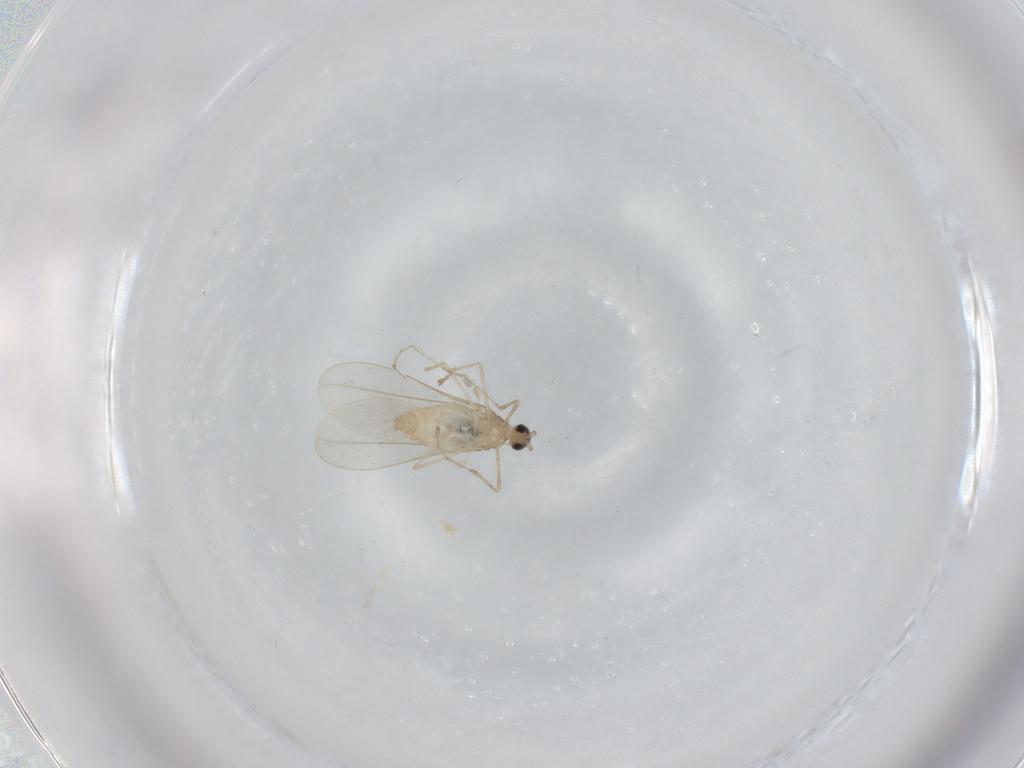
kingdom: Animalia
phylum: Arthropoda
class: Insecta
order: Diptera
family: Cecidomyiidae
